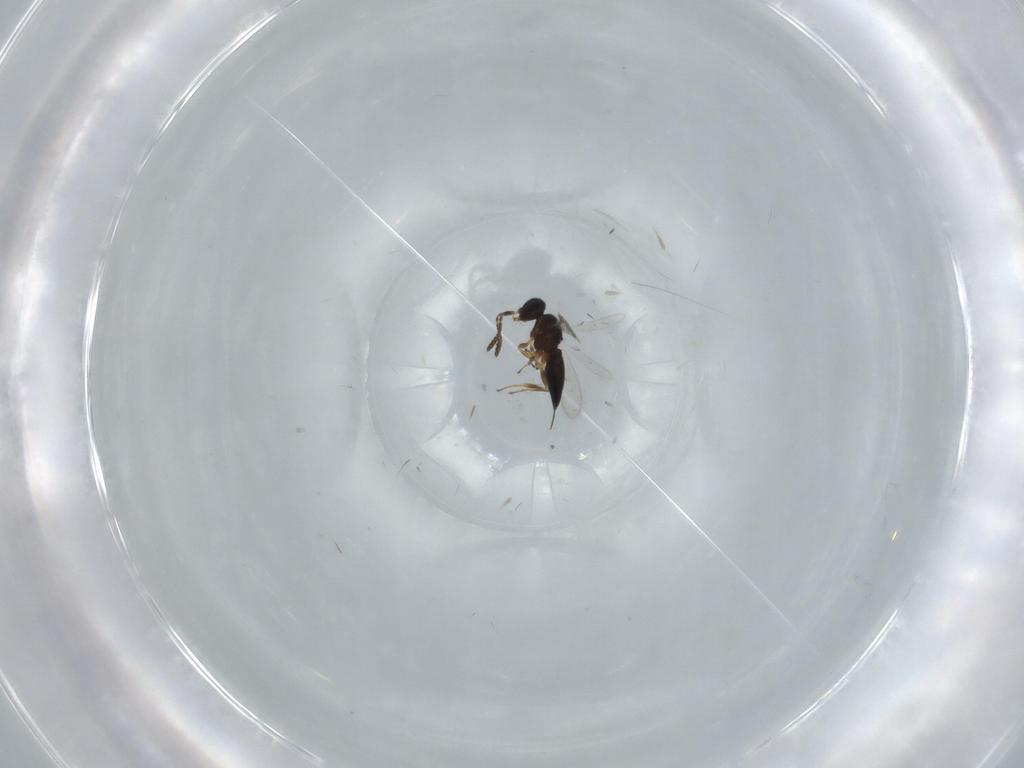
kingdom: Animalia
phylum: Arthropoda
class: Insecta
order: Hymenoptera
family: Scelionidae
